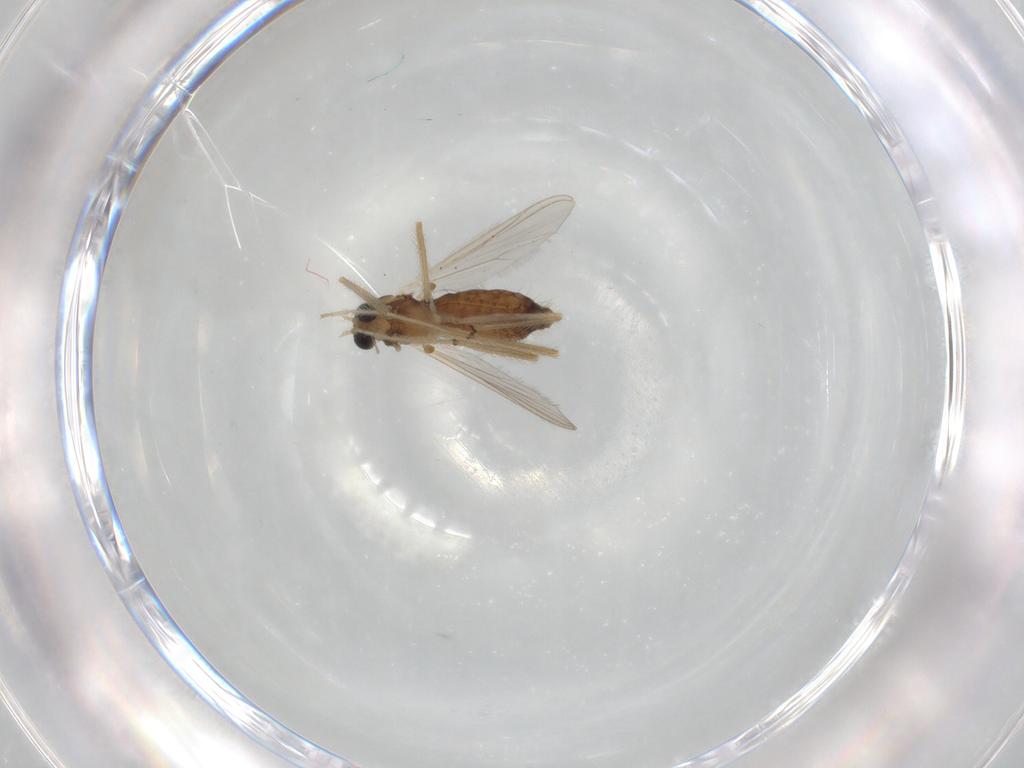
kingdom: Animalia
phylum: Arthropoda
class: Insecta
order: Diptera
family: Chironomidae
